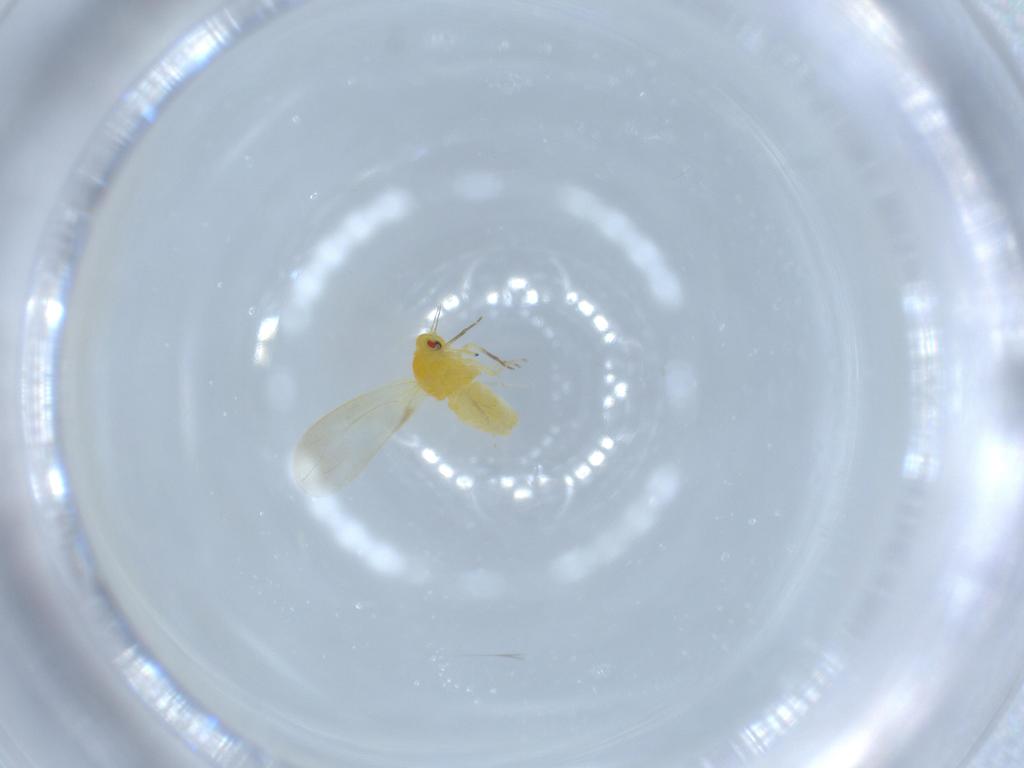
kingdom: Animalia
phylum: Arthropoda
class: Insecta
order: Hemiptera
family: Aleyrodidae
